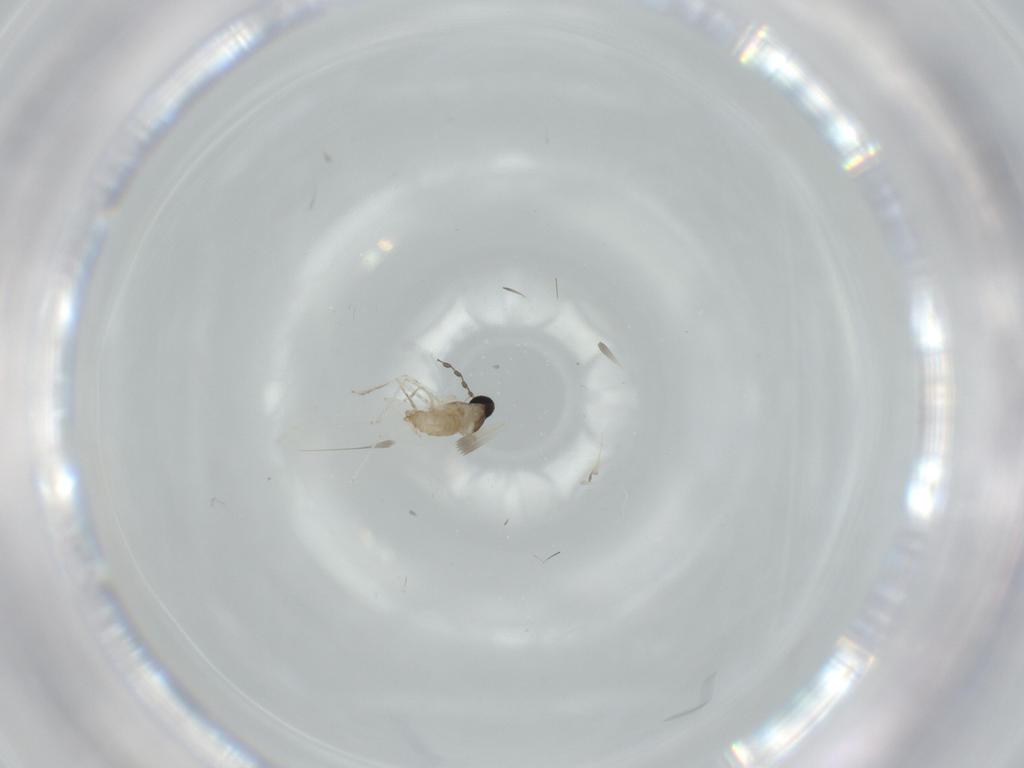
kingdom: Animalia
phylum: Arthropoda
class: Insecta
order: Diptera
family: Cecidomyiidae
